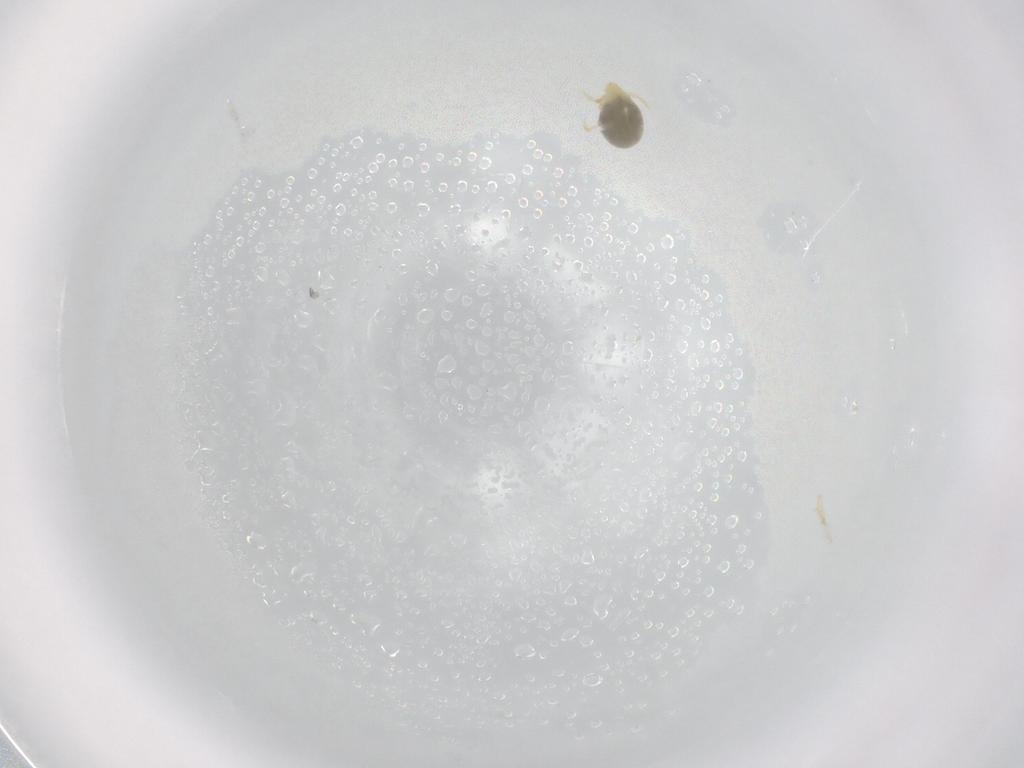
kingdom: Animalia
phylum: Arthropoda
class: Arachnida
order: Trombidiformes
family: Microtrombidiidae
